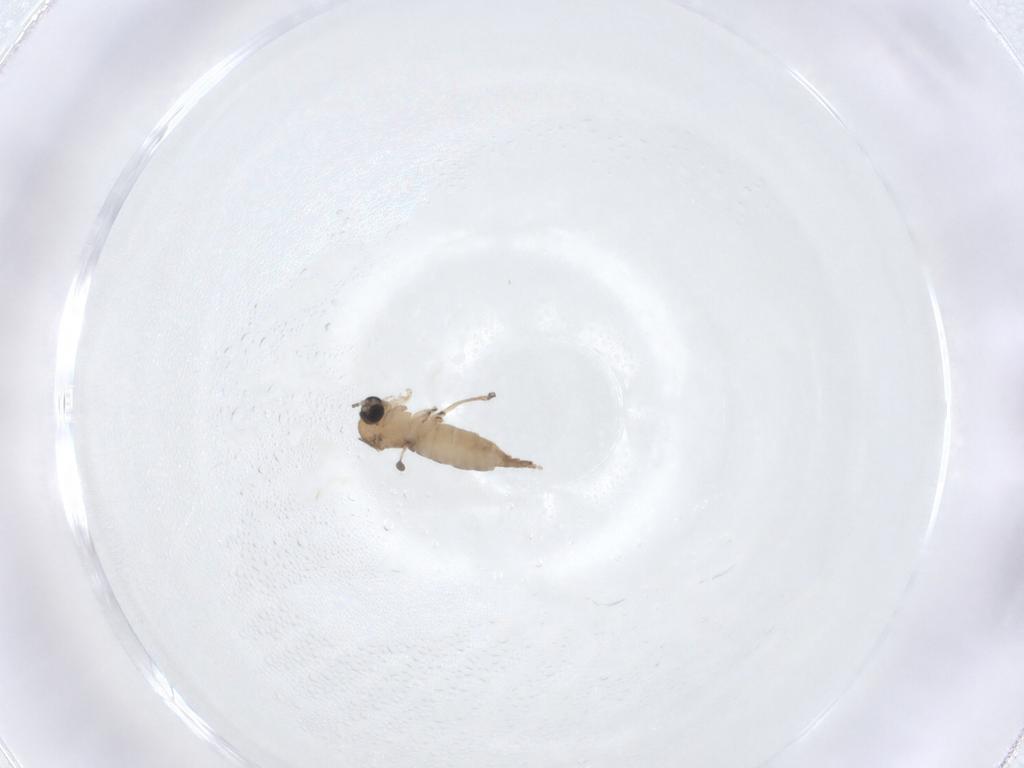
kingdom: Animalia
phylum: Arthropoda
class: Insecta
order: Diptera
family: Sciaridae
